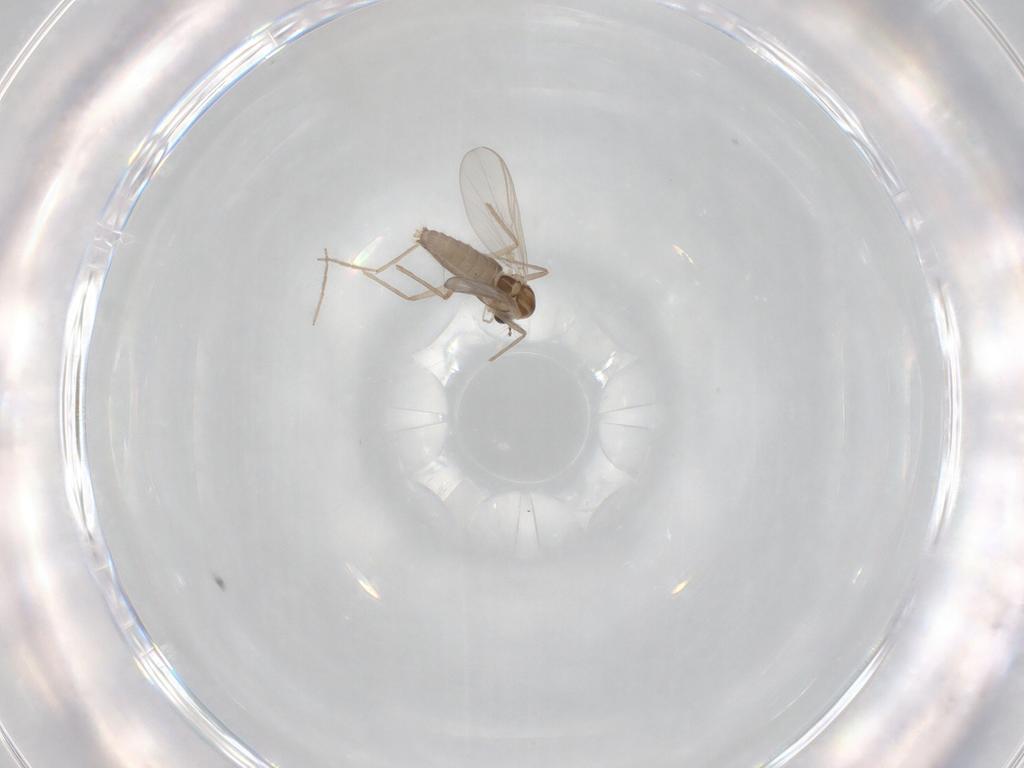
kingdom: Animalia
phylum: Arthropoda
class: Insecta
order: Diptera
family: Chironomidae
